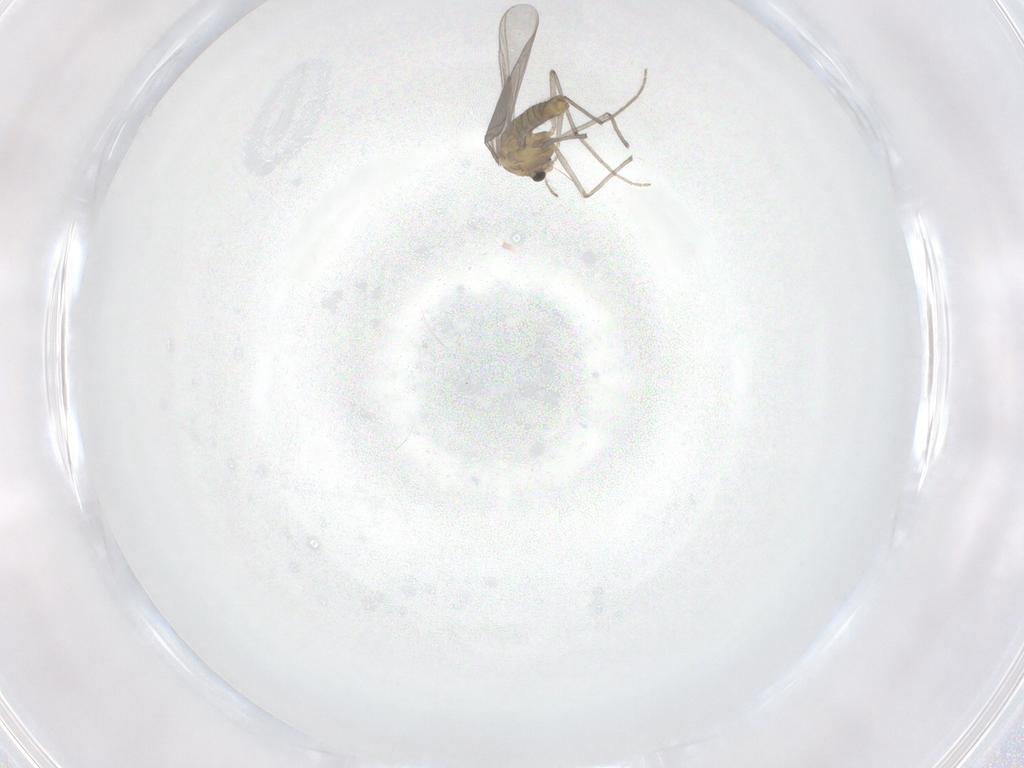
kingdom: Animalia
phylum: Arthropoda
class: Insecta
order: Diptera
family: Chironomidae
